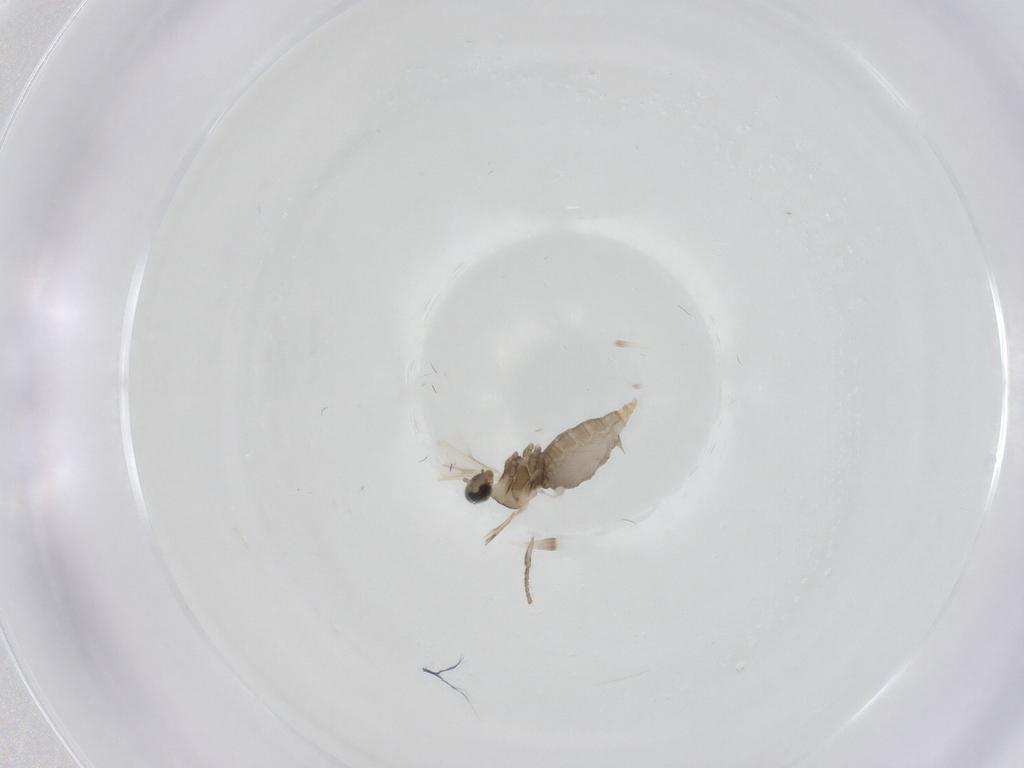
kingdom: Animalia
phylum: Arthropoda
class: Insecta
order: Diptera
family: Cecidomyiidae
